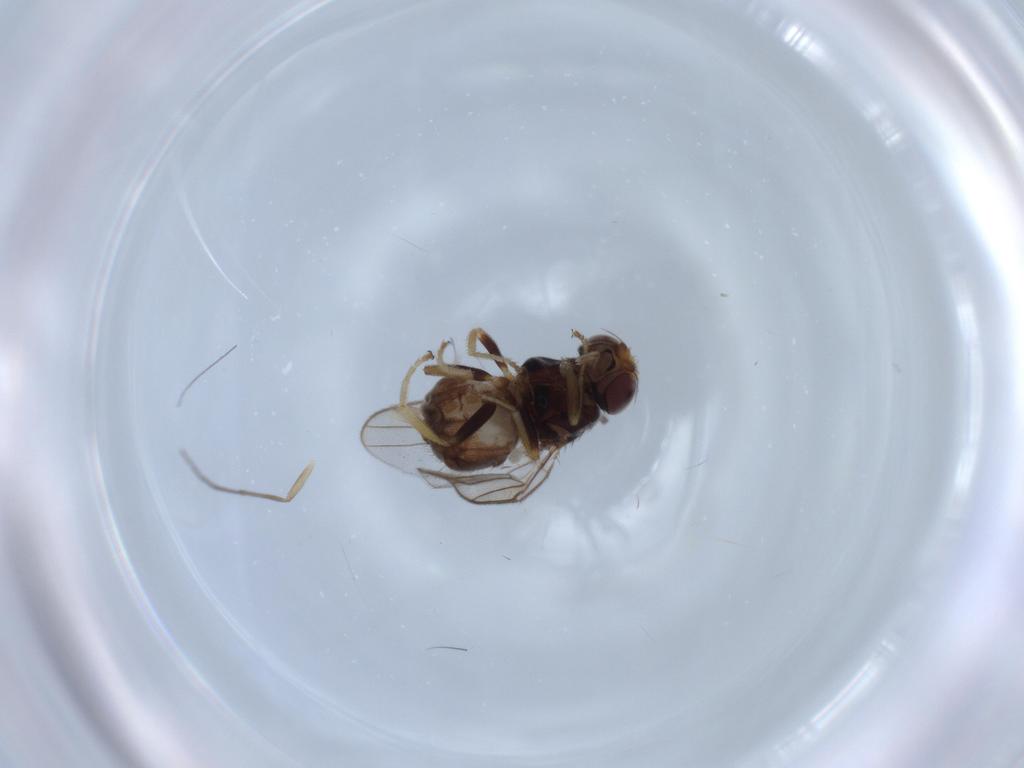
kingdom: Animalia
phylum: Arthropoda
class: Insecta
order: Diptera
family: Chloropidae
